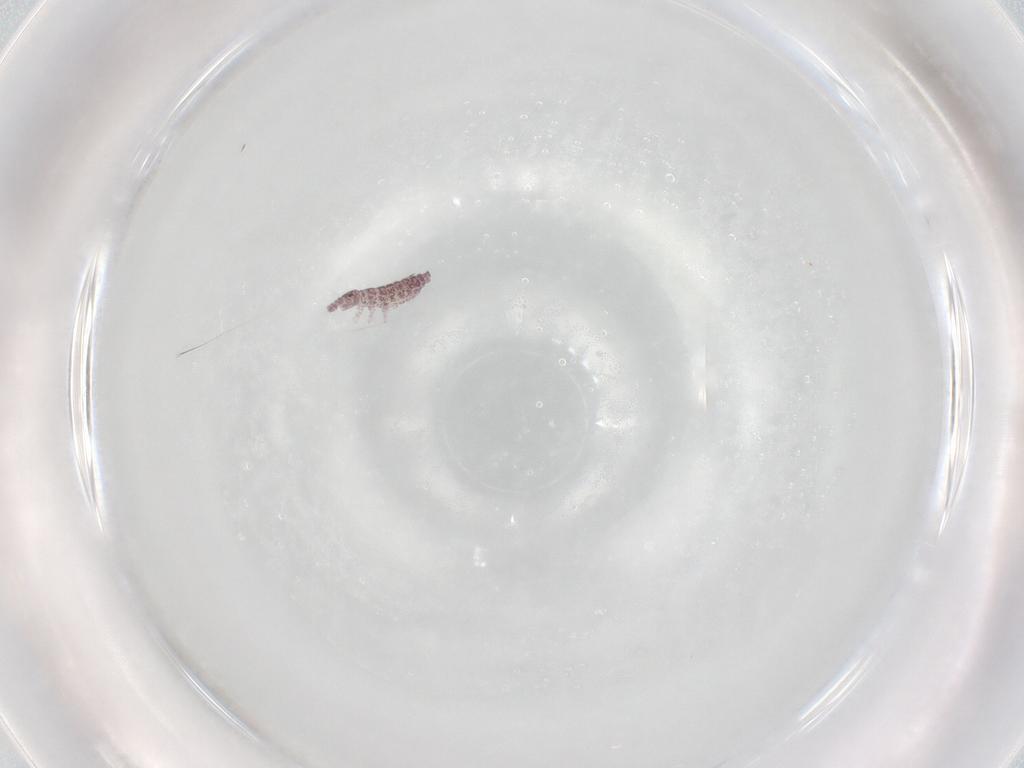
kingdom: Animalia
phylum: Arthropoda
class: Collembola
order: Poduromorpha
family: Hypogastruridae
